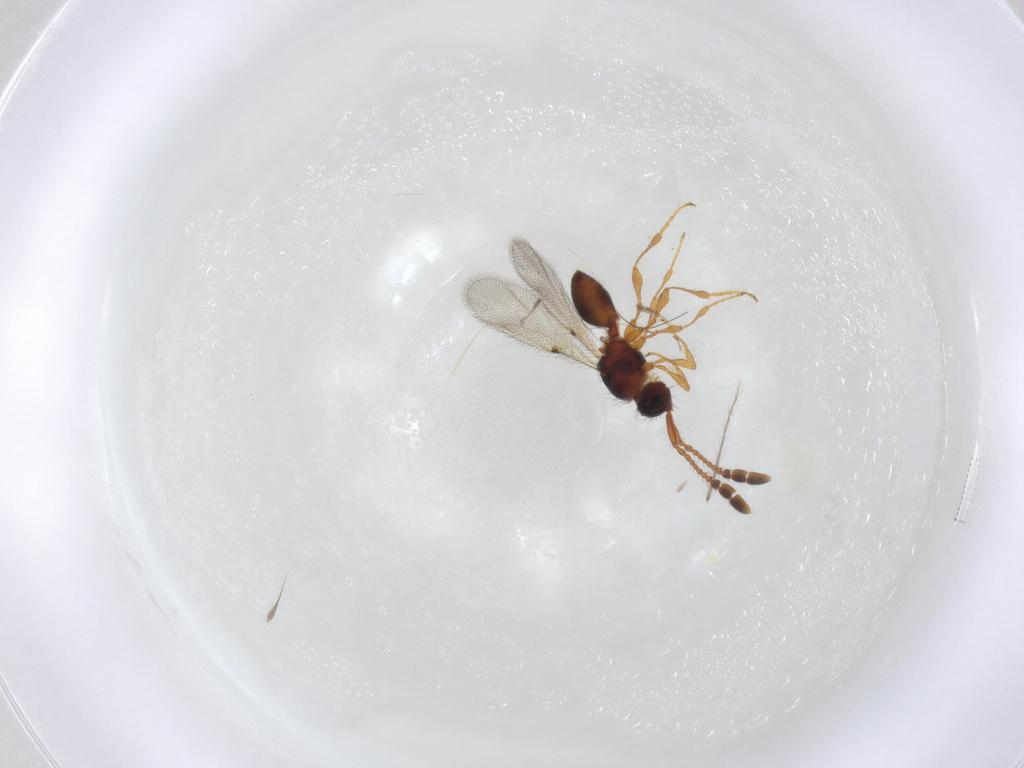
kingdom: Animalia
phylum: Arthropoda
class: Insecta
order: Hymenoptera
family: Diapriidae
